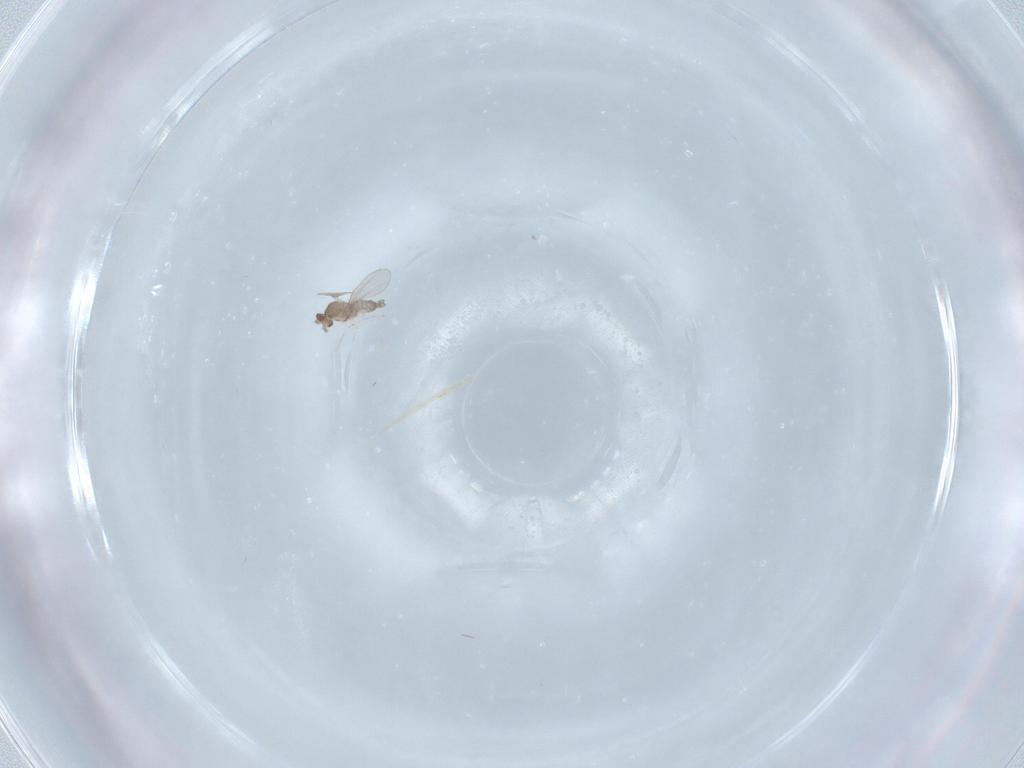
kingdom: Animalia
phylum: Arthropoda
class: Insecta
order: Diptera
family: Cecidomyiidae
